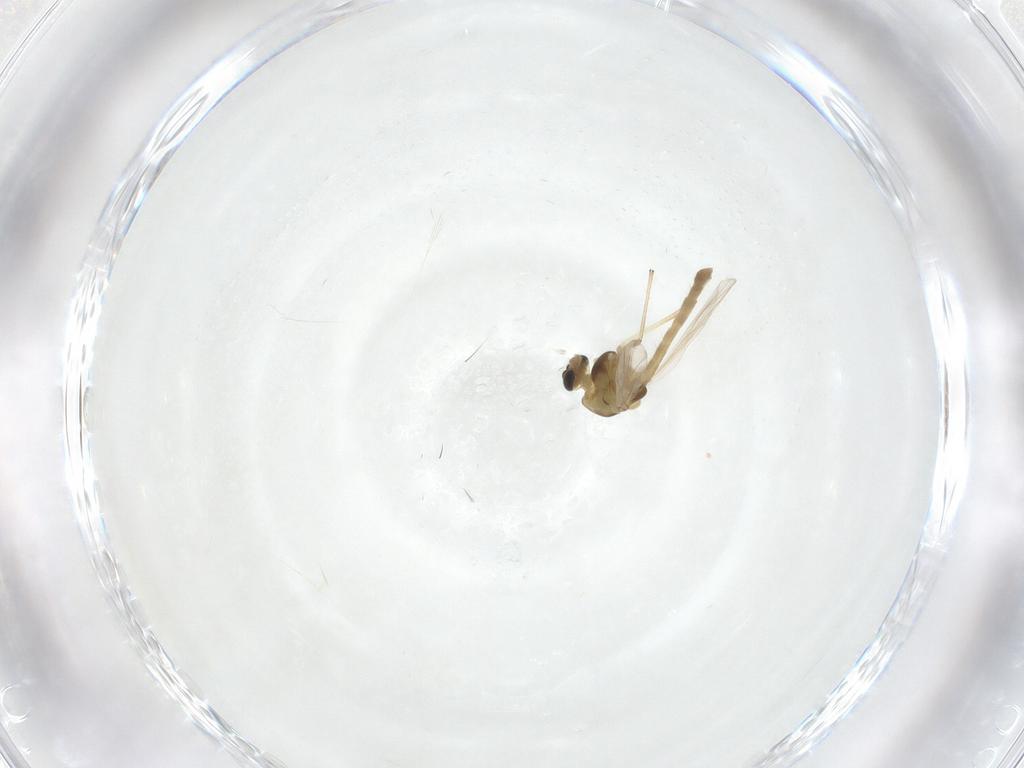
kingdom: Animalia
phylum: Arthropoda
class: Insecta
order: Diptera
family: Chironomidae
